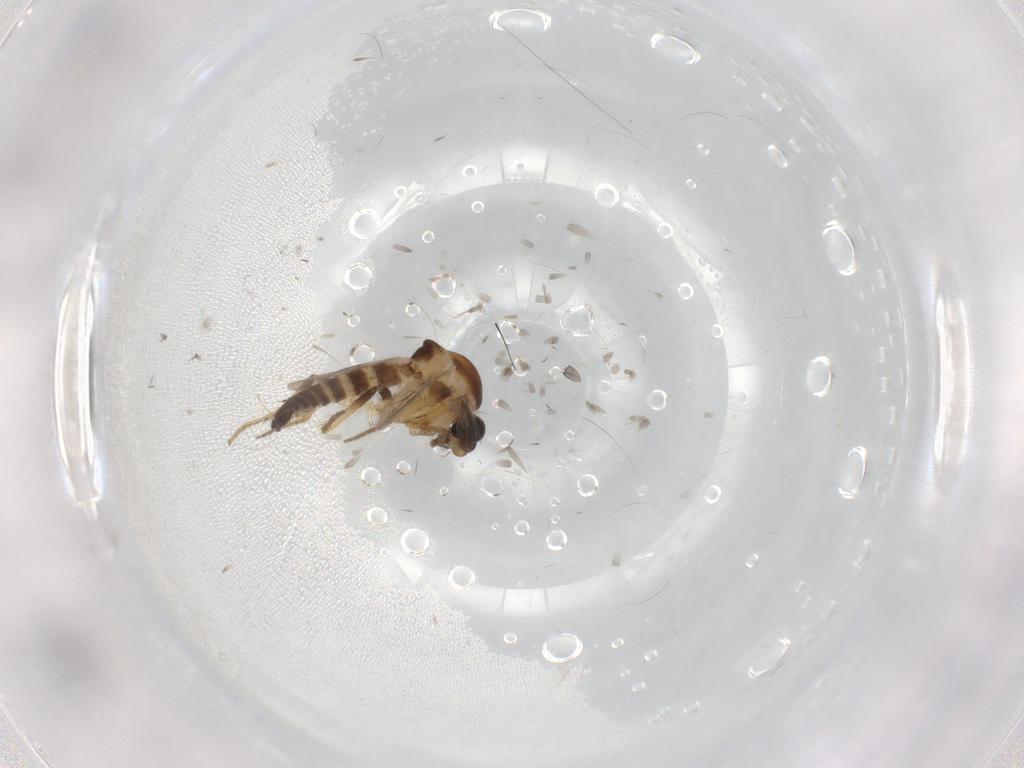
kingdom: Animalia
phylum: Arthropoda
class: Insecta
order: Diptera
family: Ceratopogonidae
